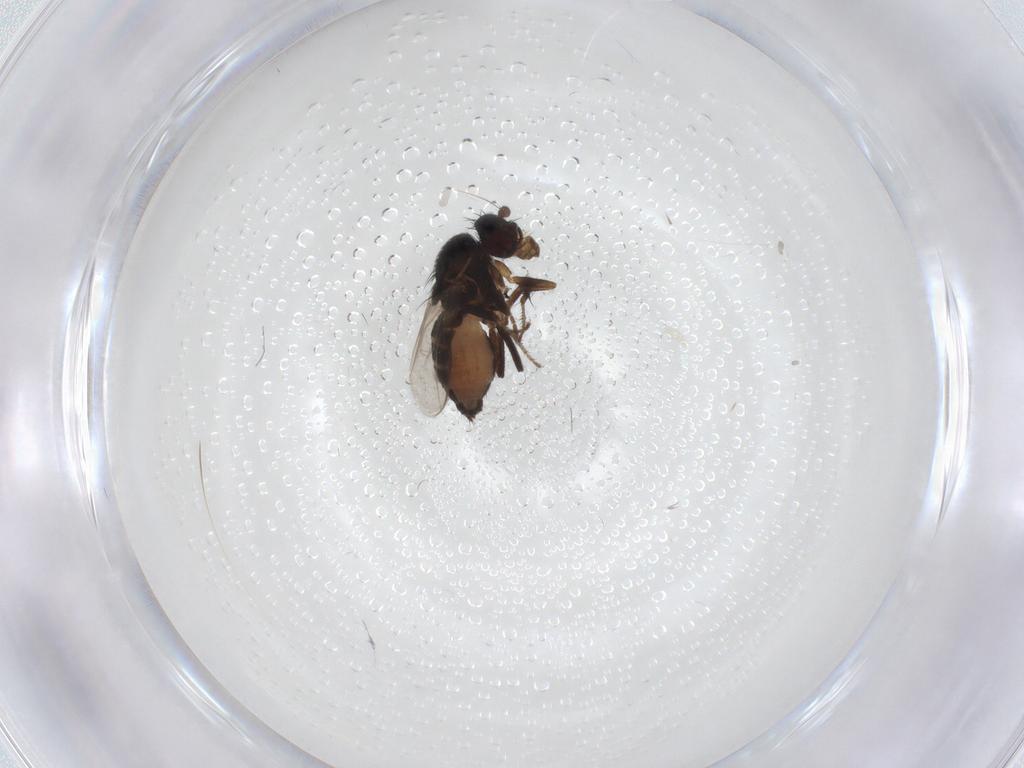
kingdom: Animalia
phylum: Arthropoda
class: Insecta
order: Diptera
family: Sphaeroceridae
